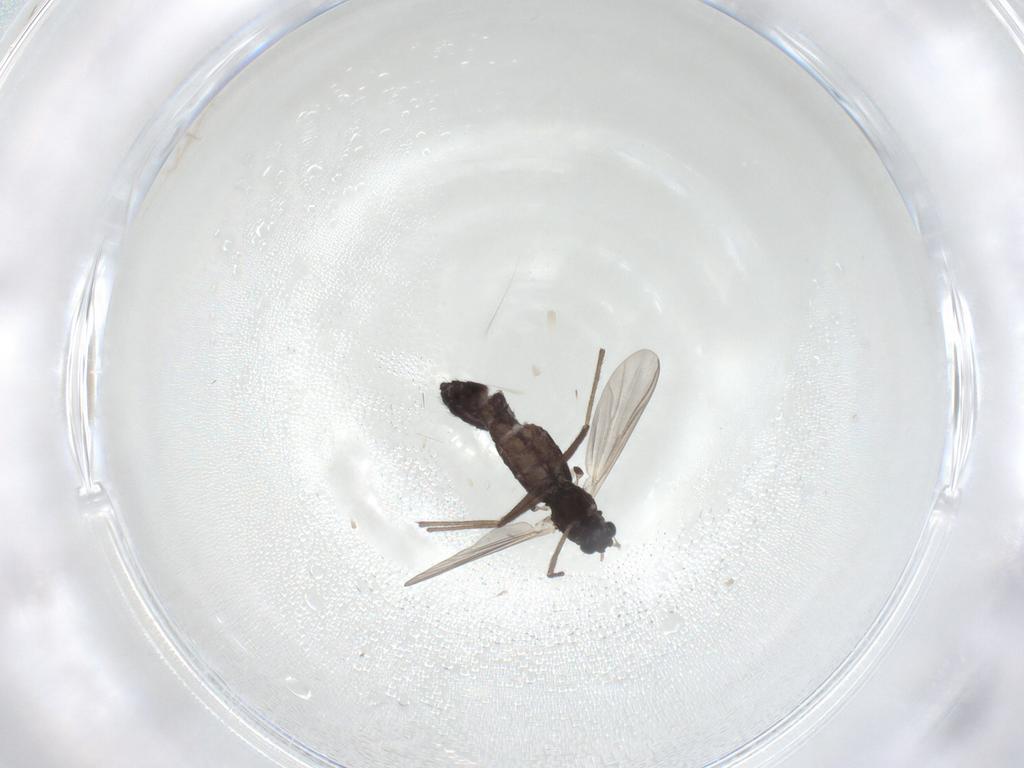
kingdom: Animalia
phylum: Arthropoda
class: Insecta
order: Diptera
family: Chironomidae
